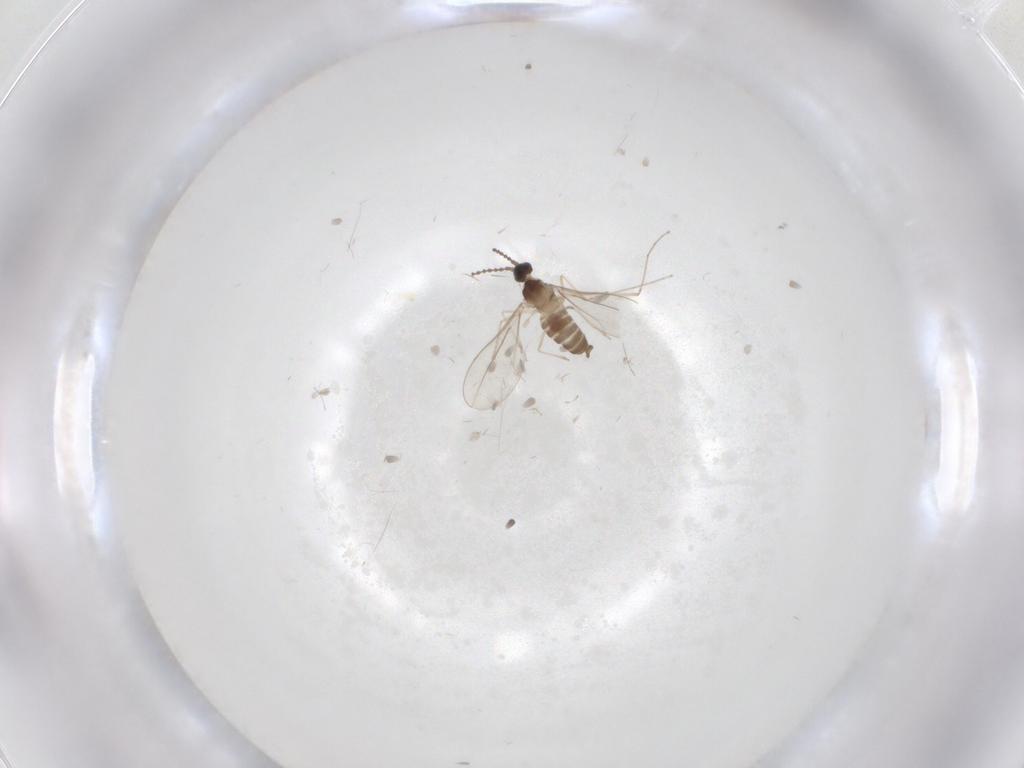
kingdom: Animalia
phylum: Arthropoda
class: Insecta
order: Diptera
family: Cecidomyiidae
